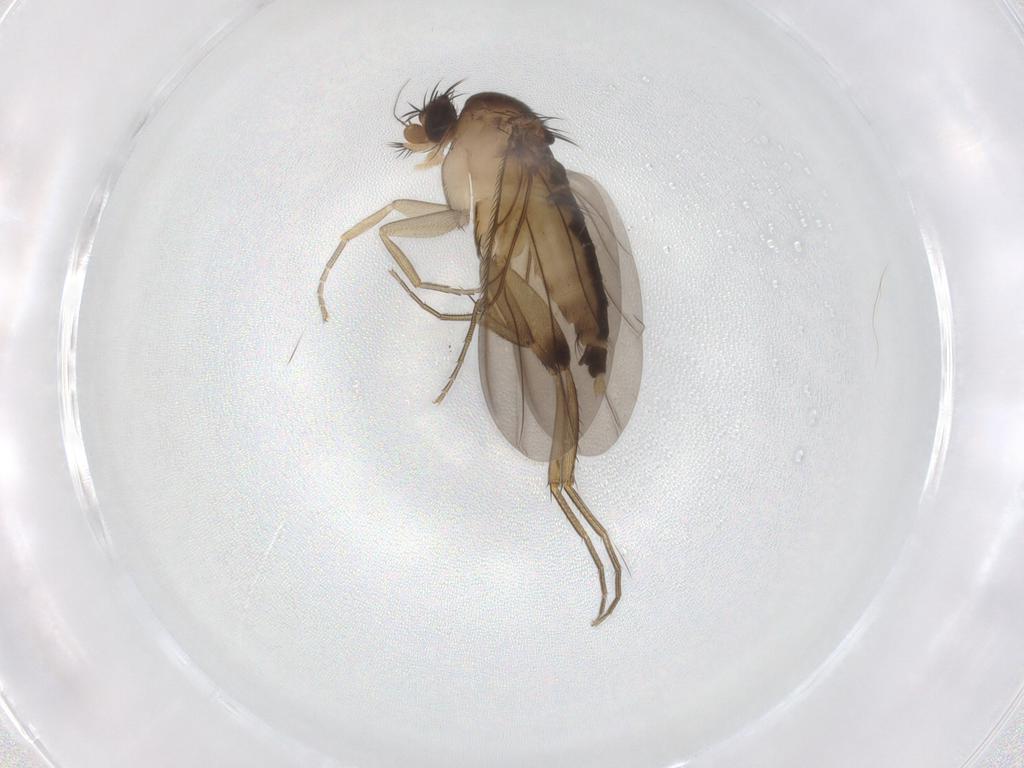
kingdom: Animalia
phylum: Arthropoda
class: Insecta
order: Diptera
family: Phoridae
